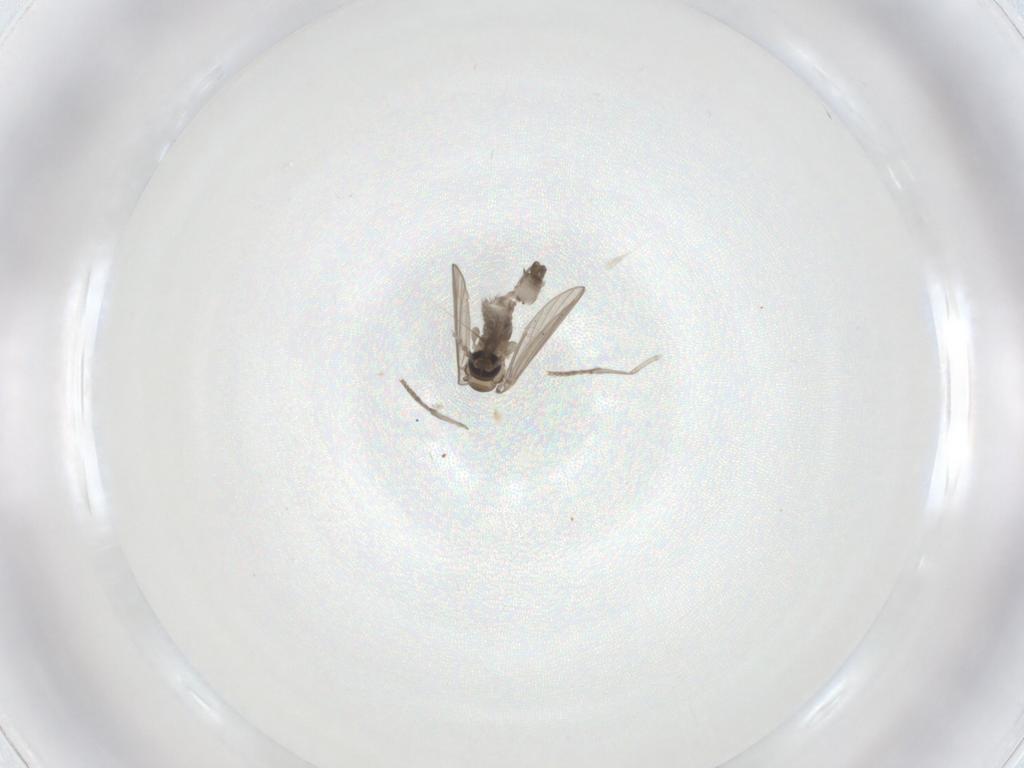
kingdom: Animalia
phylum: Arthropoda
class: Insecta
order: Diptera
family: Psychodidae
